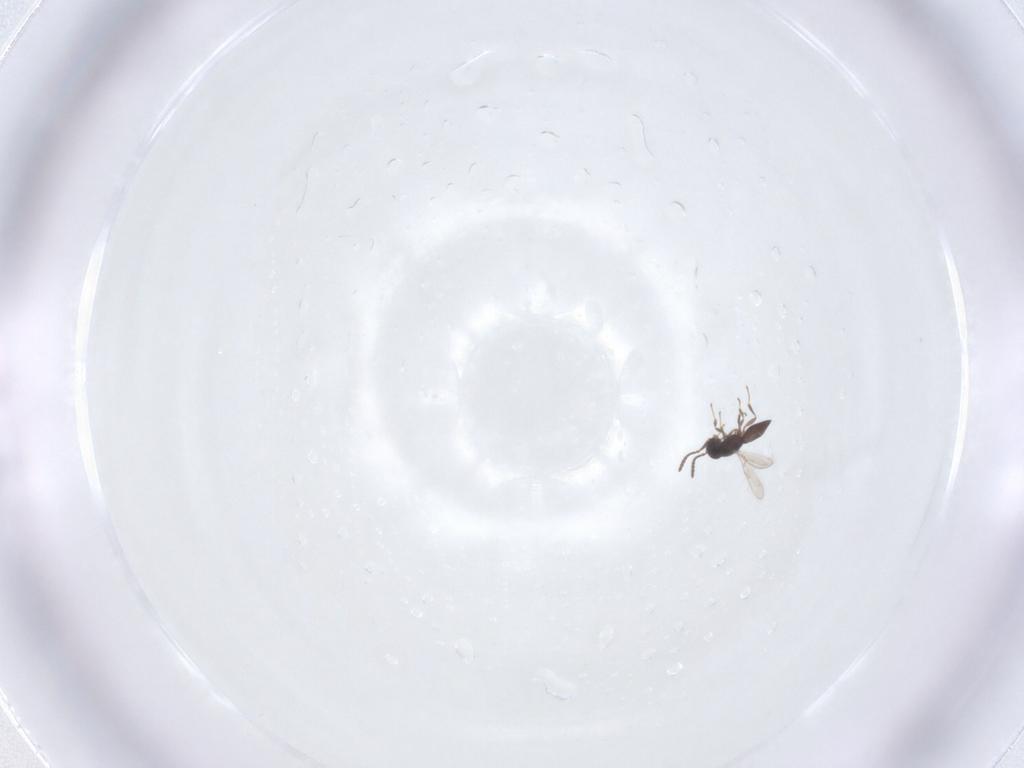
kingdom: Animalia
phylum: Arthropoda
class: Insecta
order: Hymenoptera
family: Scelionidae
